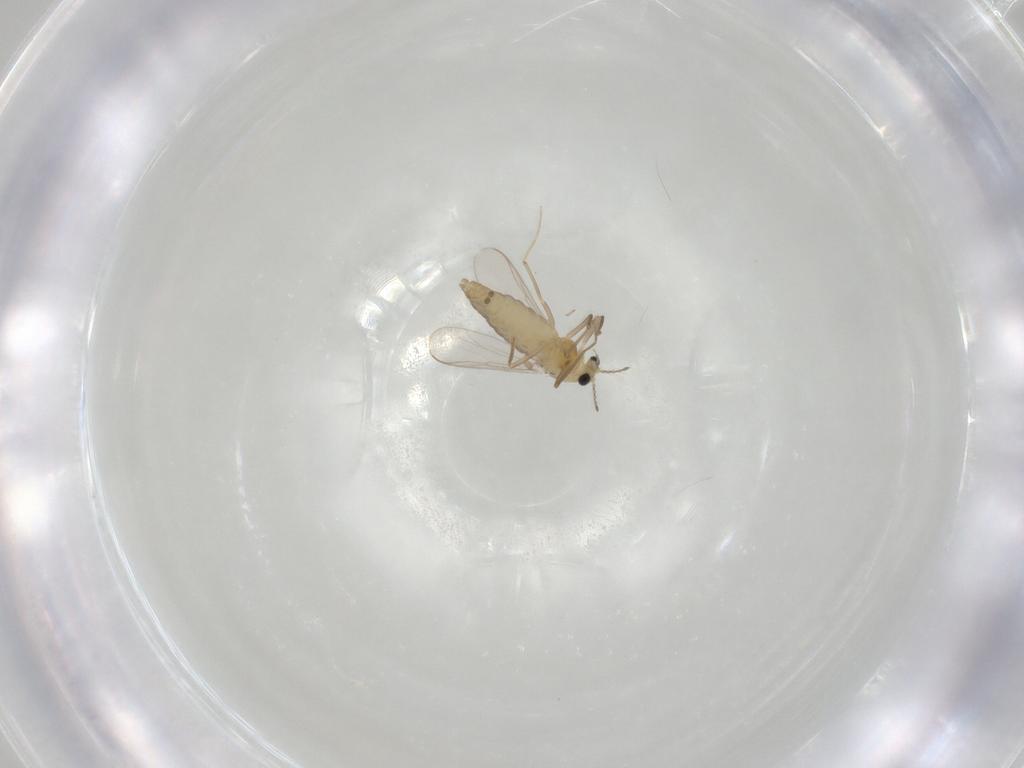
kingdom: Animalia
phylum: Arthropoda
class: Insecta
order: Diptera
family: Chironomidae
